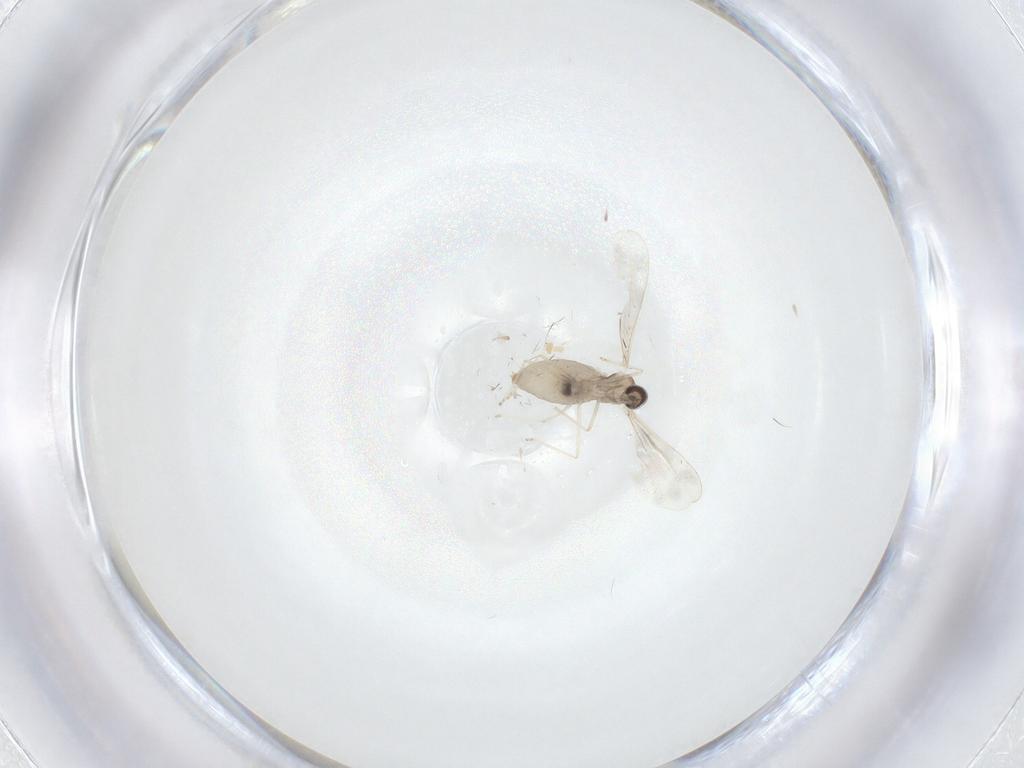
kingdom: Animalia
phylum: Arthropoda
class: Insecta
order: Diptera
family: Cecidomyiidae
